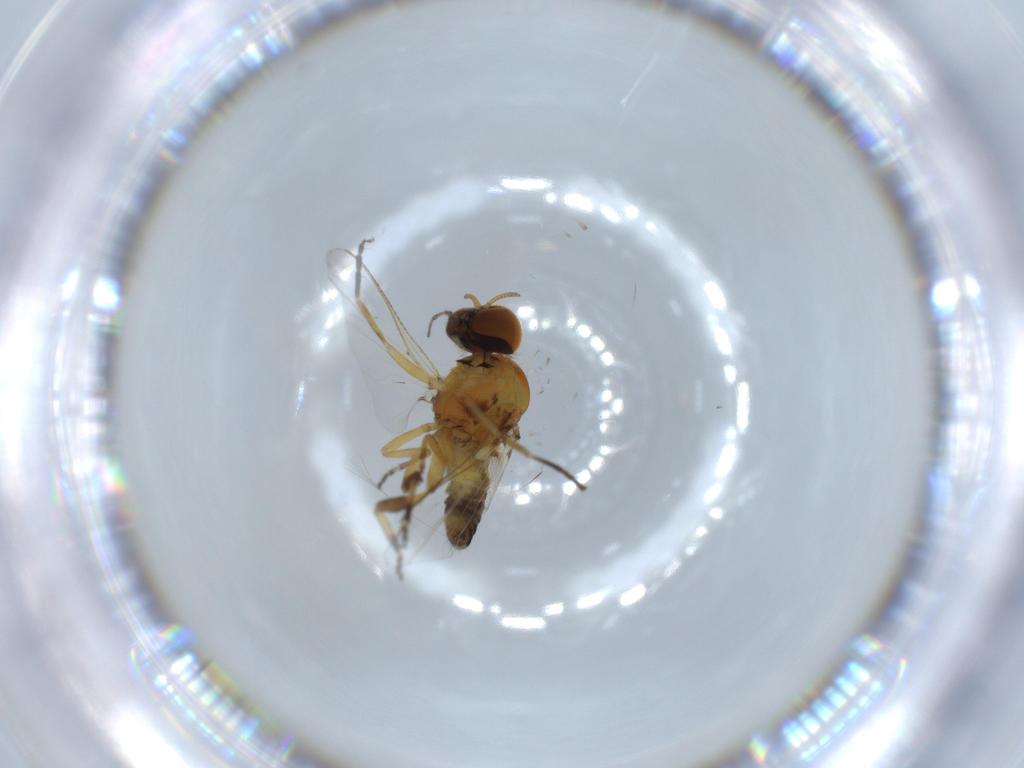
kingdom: Animalia
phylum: Arthropoda
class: Insecta
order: Diptera
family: Simuliidae
